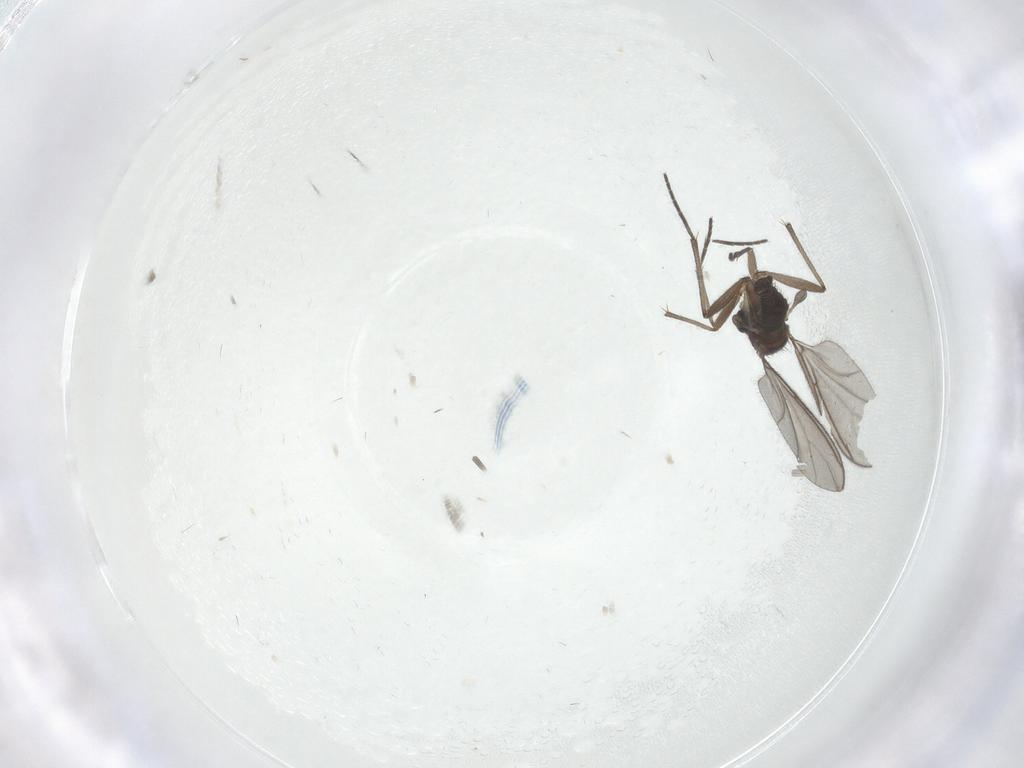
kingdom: Animalia
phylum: Arthropoda
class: Insecta
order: Diptera
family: Sciaridae
